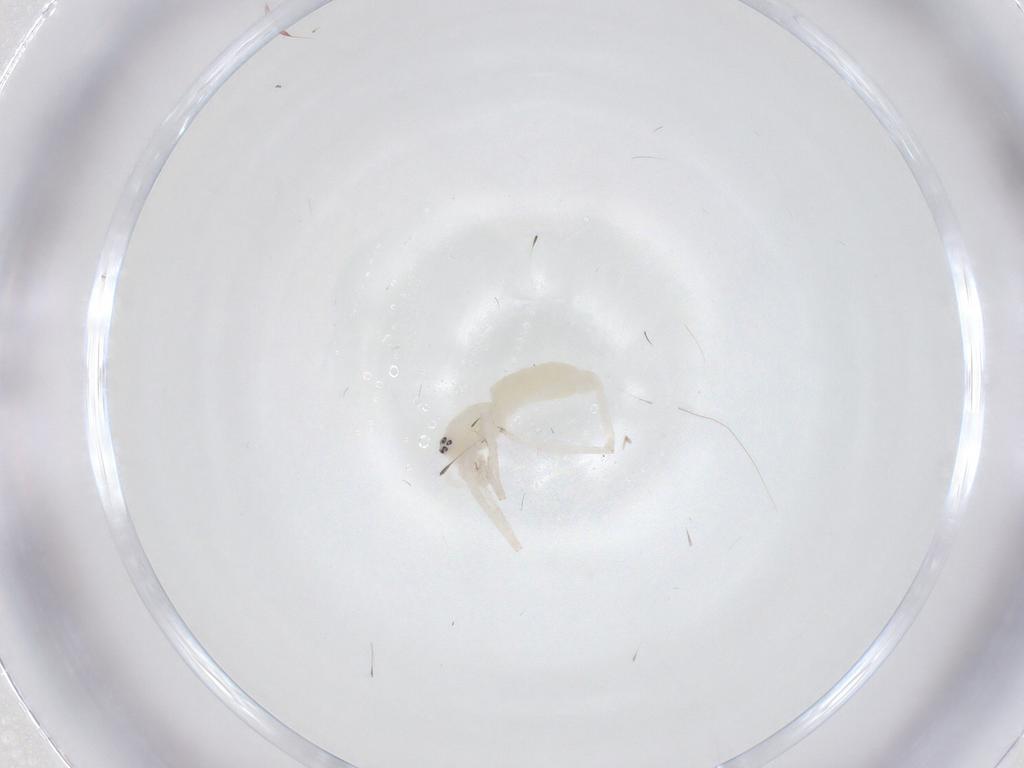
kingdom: Animalia
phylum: Arthropoda
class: Arachnida
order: Araneae
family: Anyphaenidae
